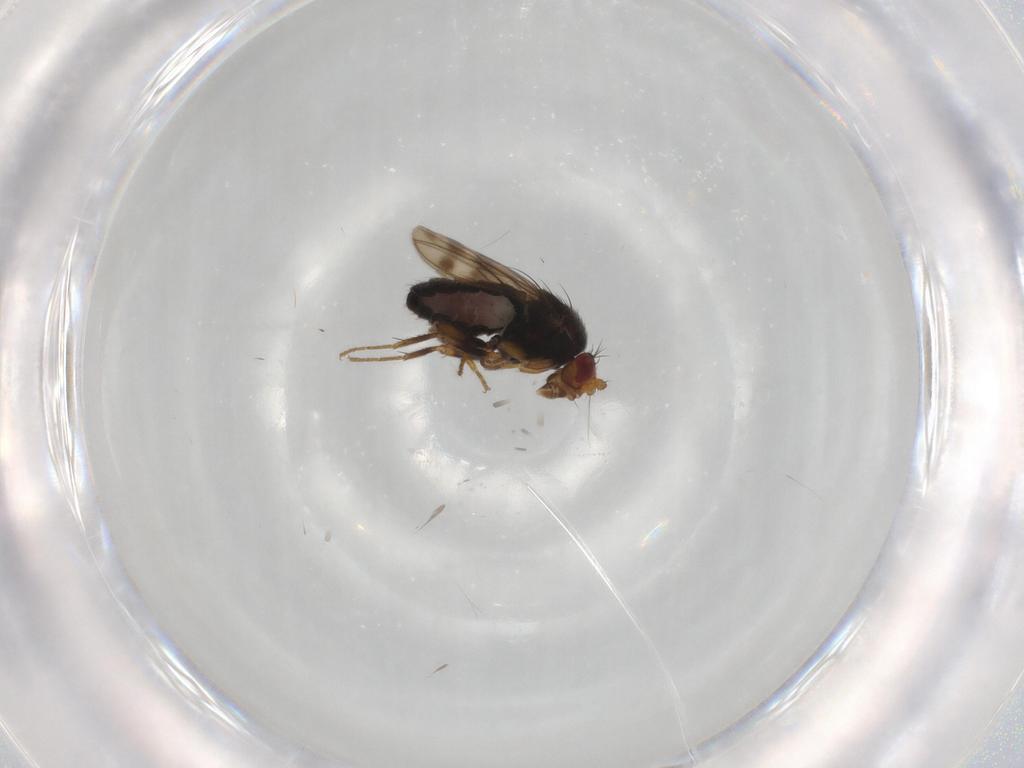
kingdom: Animalia
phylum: Arthropoda
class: Insecta
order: Diptera
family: Sphaeroceridae
